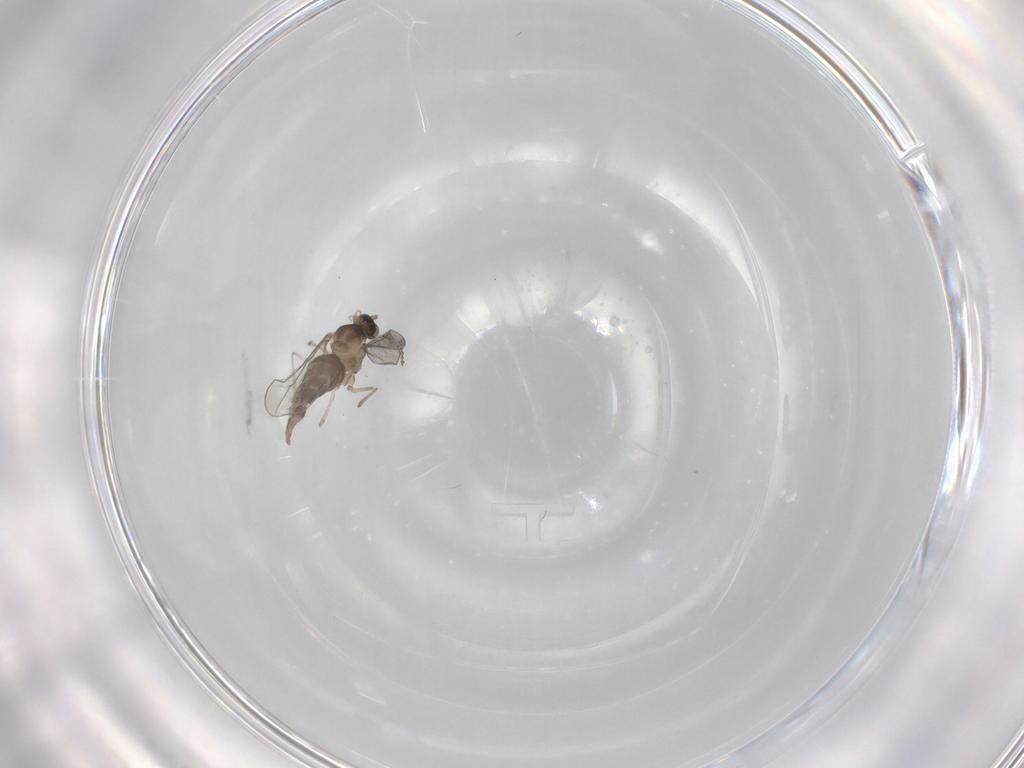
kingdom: Animalia
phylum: Arthropoda
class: Insecta
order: Diptera
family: Cecidomyiidae
